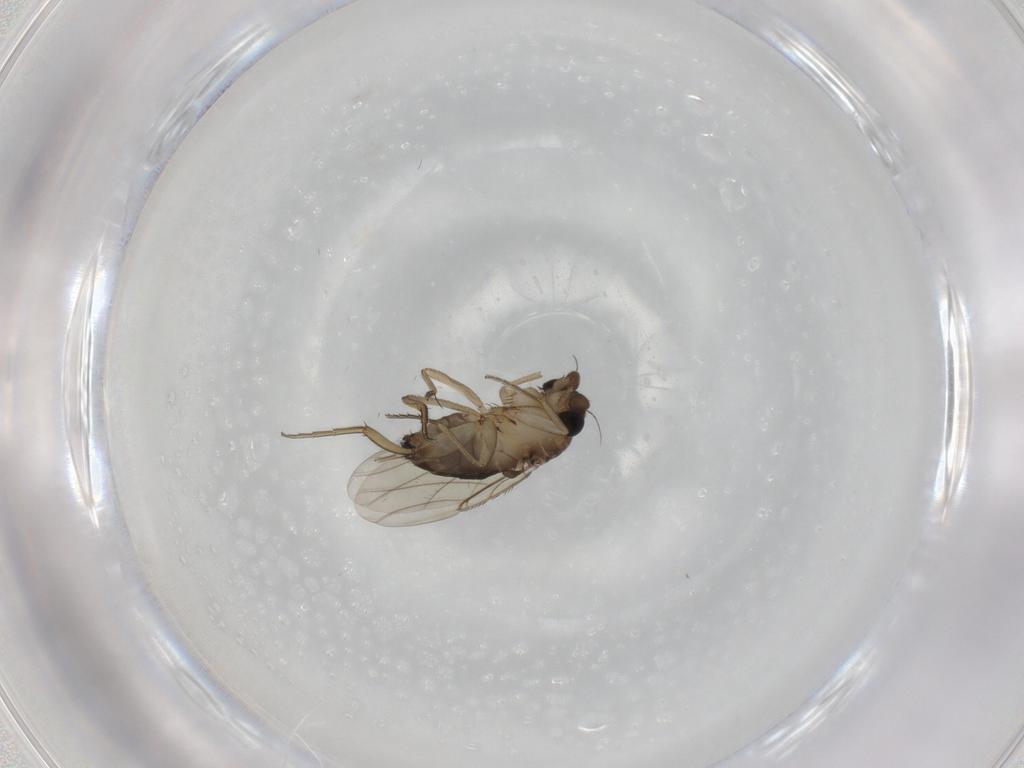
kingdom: Animalia
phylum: Arthropoda
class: Insecta
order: Diptera
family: Phoridae
